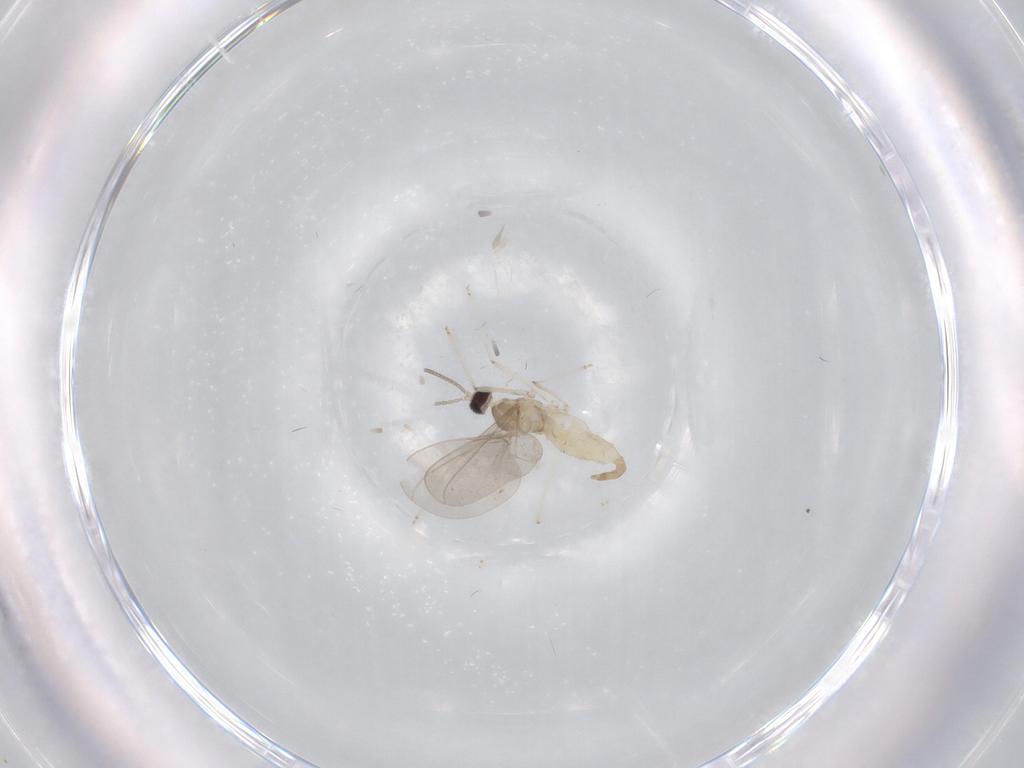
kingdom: Animalia
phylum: Arthropoda
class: Insecta
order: Diptera
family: Cecidomyiidae
